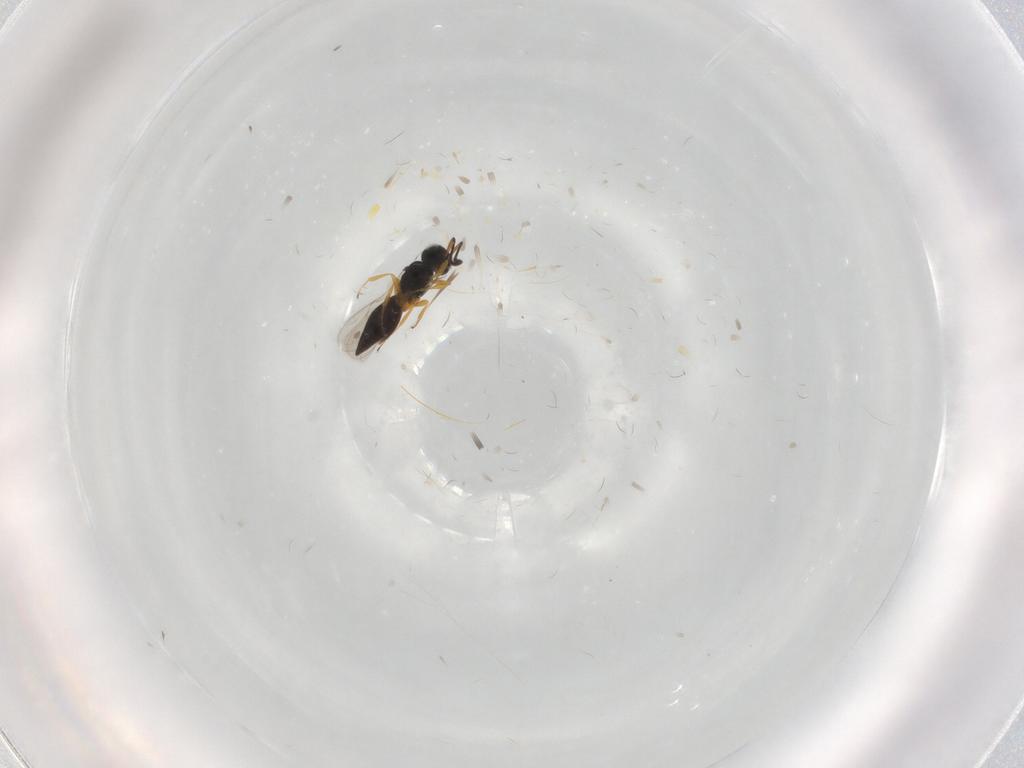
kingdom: Animalia
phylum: Arthropoda
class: Insecta
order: Hymenoptera
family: Scelionidae
